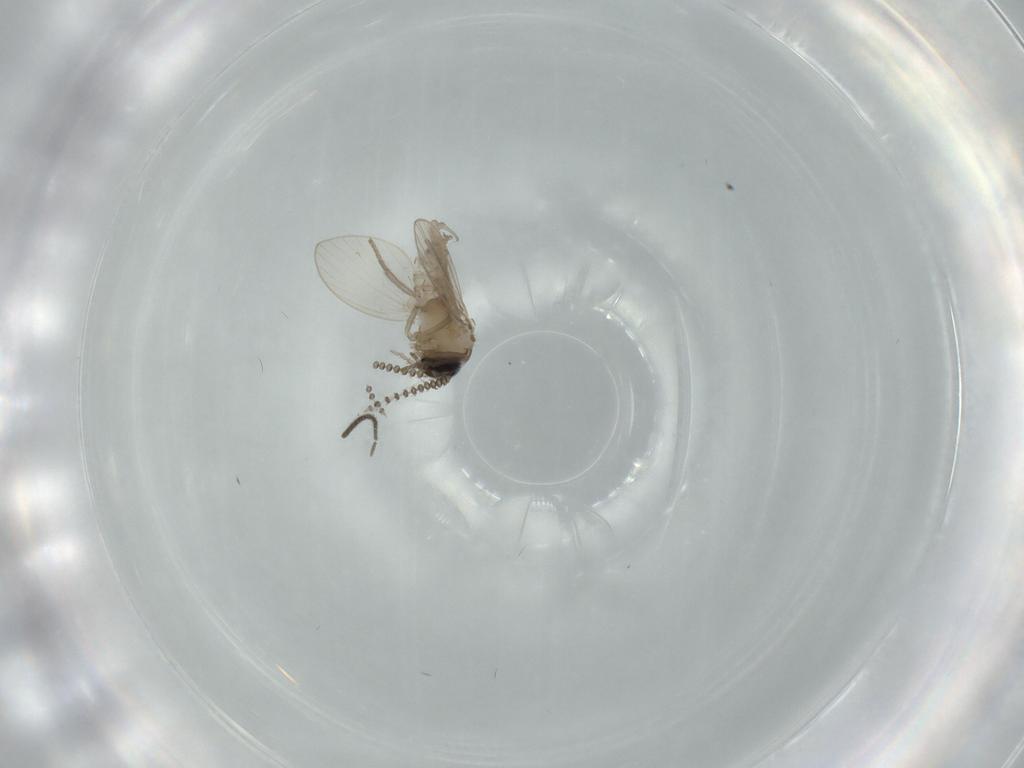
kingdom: Animalia
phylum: Arthropoda
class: Insecta
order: Diptera
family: Psychodidae
